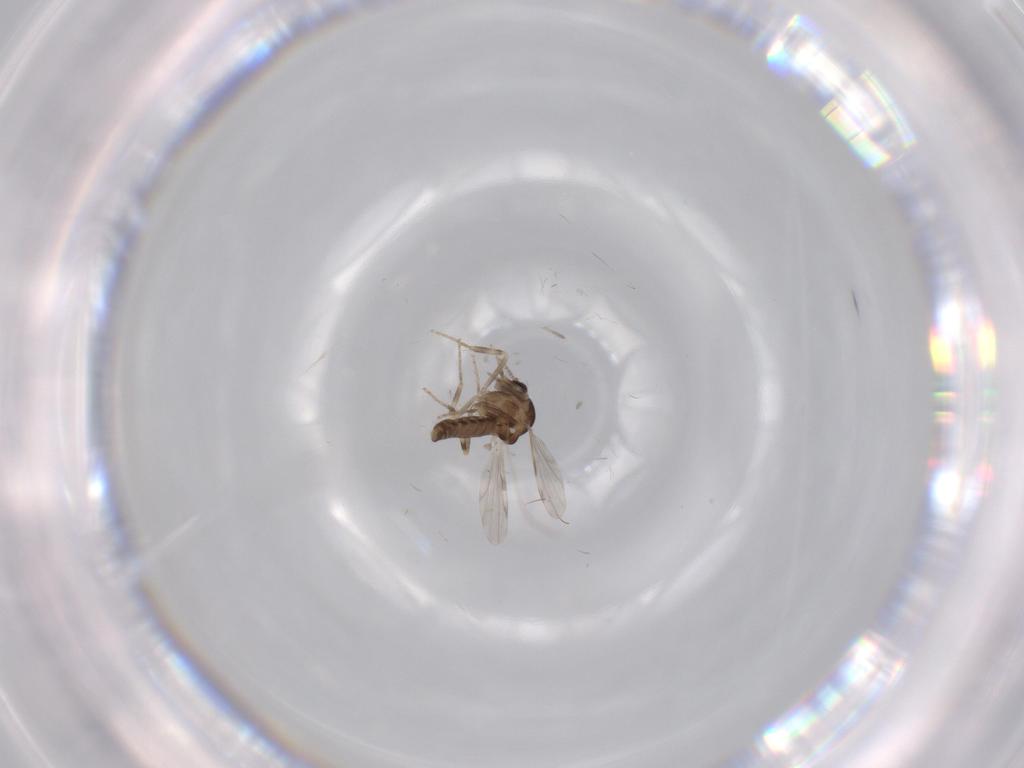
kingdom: Animalia
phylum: Arthropoda
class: Insecta
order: Diptera
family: Ceratopogonidae
